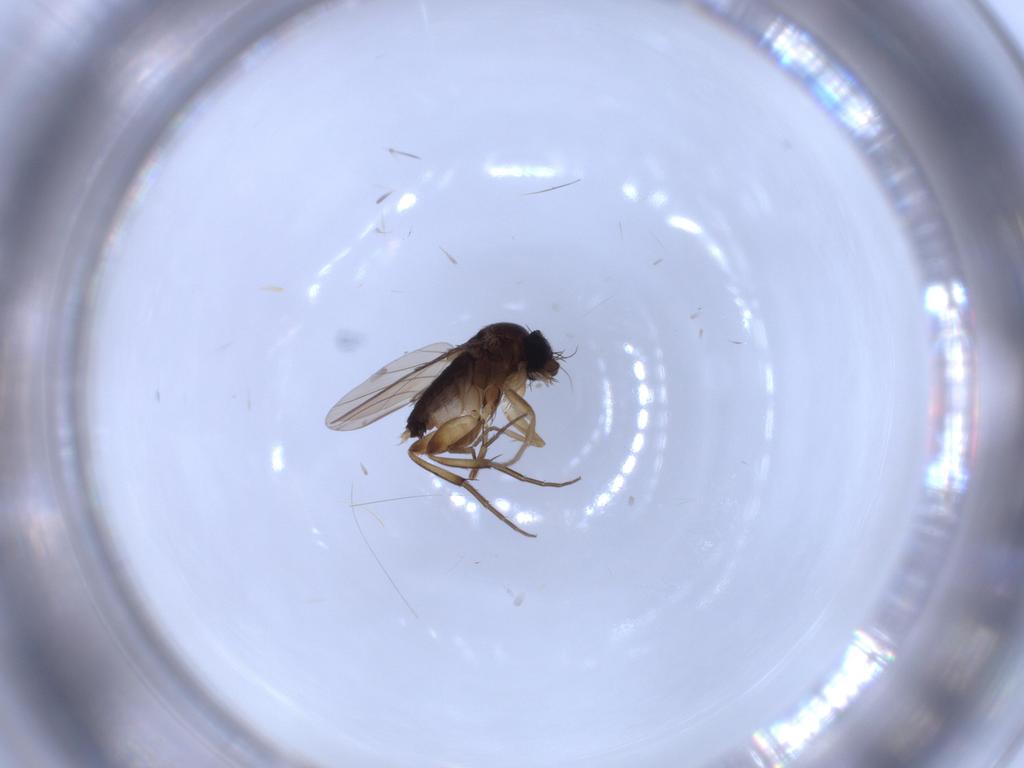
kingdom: Animalia
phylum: Arthropoda
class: Insecta
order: Diptera
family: Phoridae
